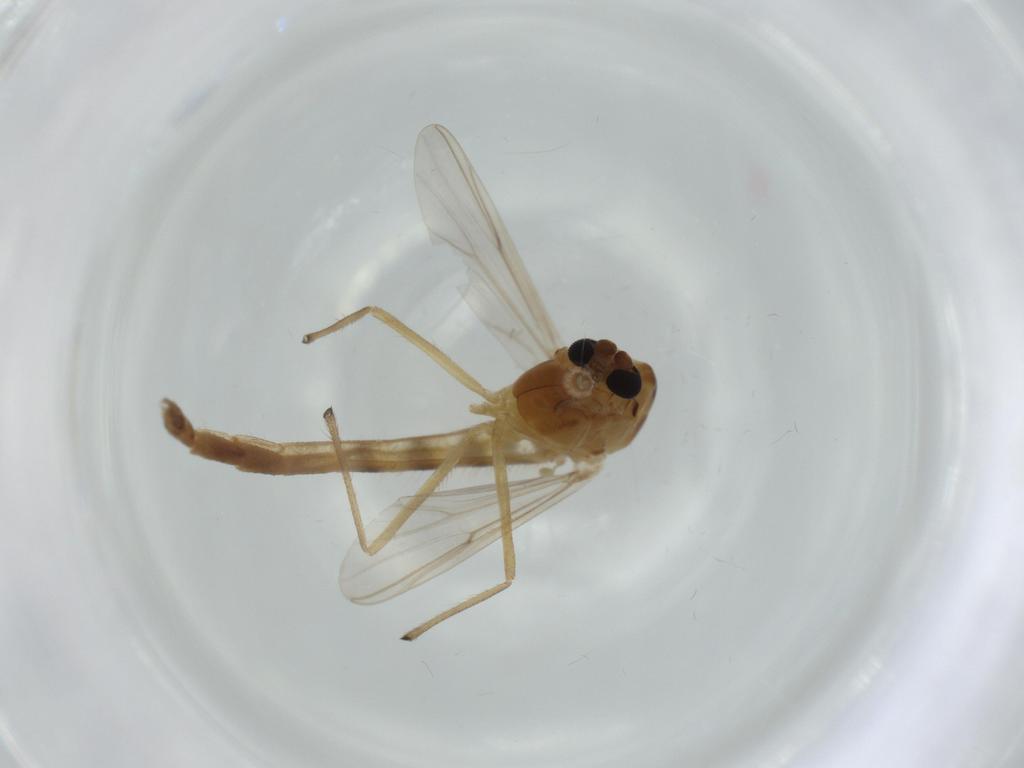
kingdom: Animalia
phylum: Arthropoda
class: Insecta
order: Diptera
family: Chironomidae
